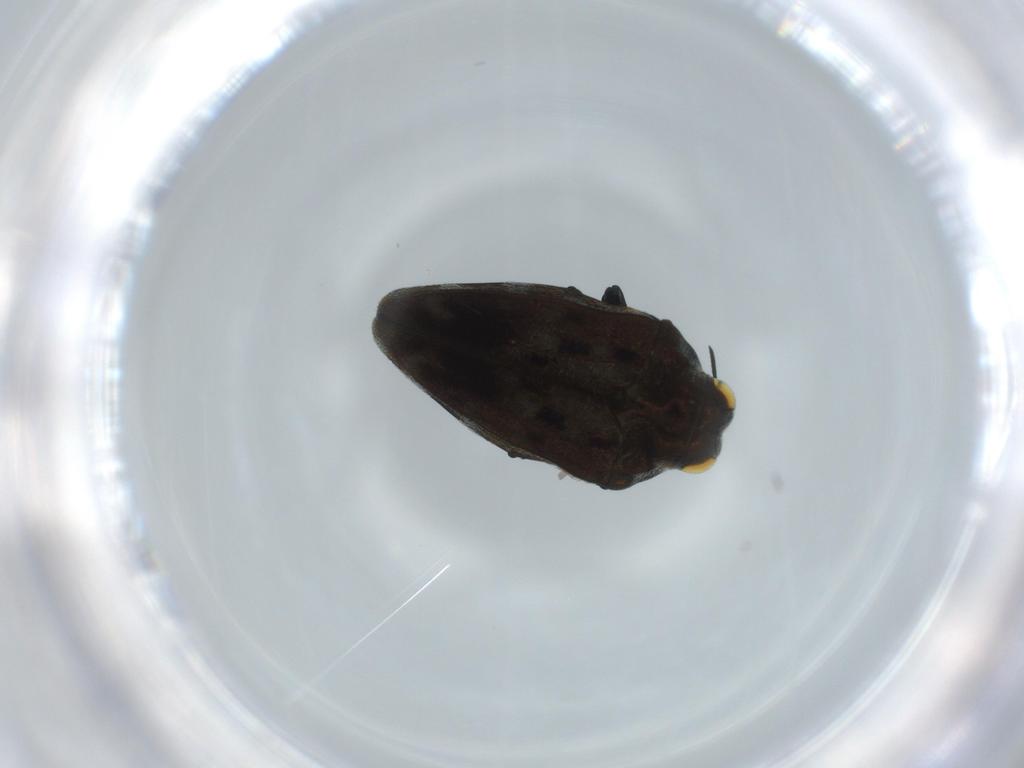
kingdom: Animalia
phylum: Arthropoda
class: Insecta
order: Coleoptera
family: Buprestidae
